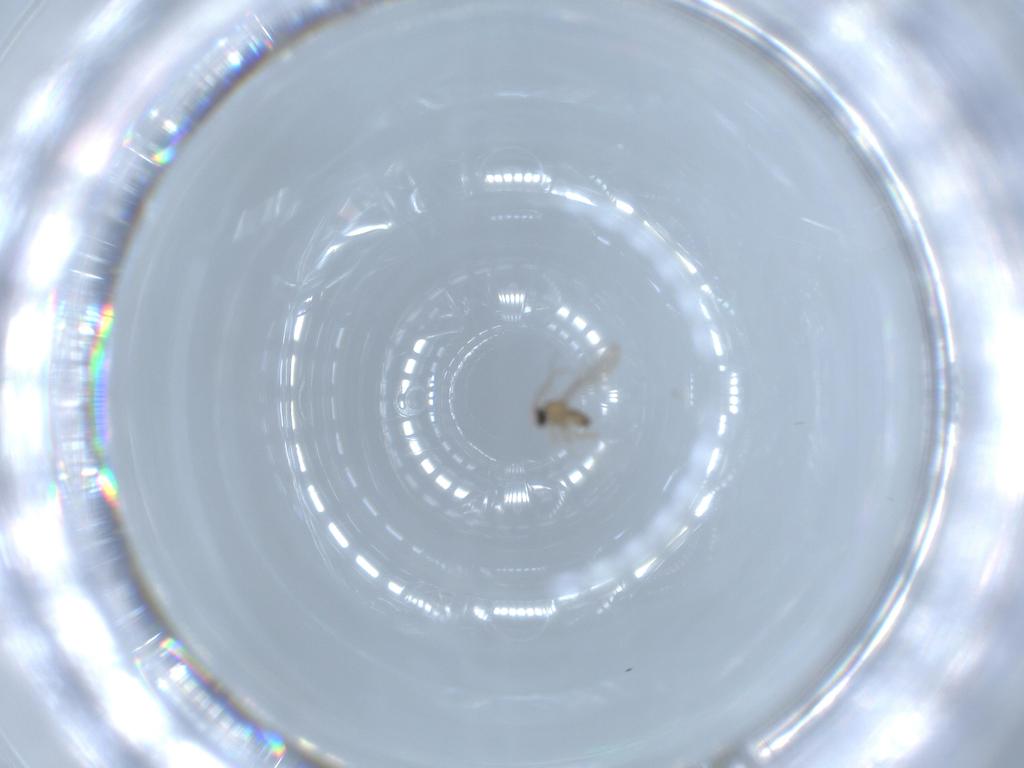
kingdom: Animalia
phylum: Arthropoda
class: Insecta
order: Diptera
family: Cecidomyiidae
